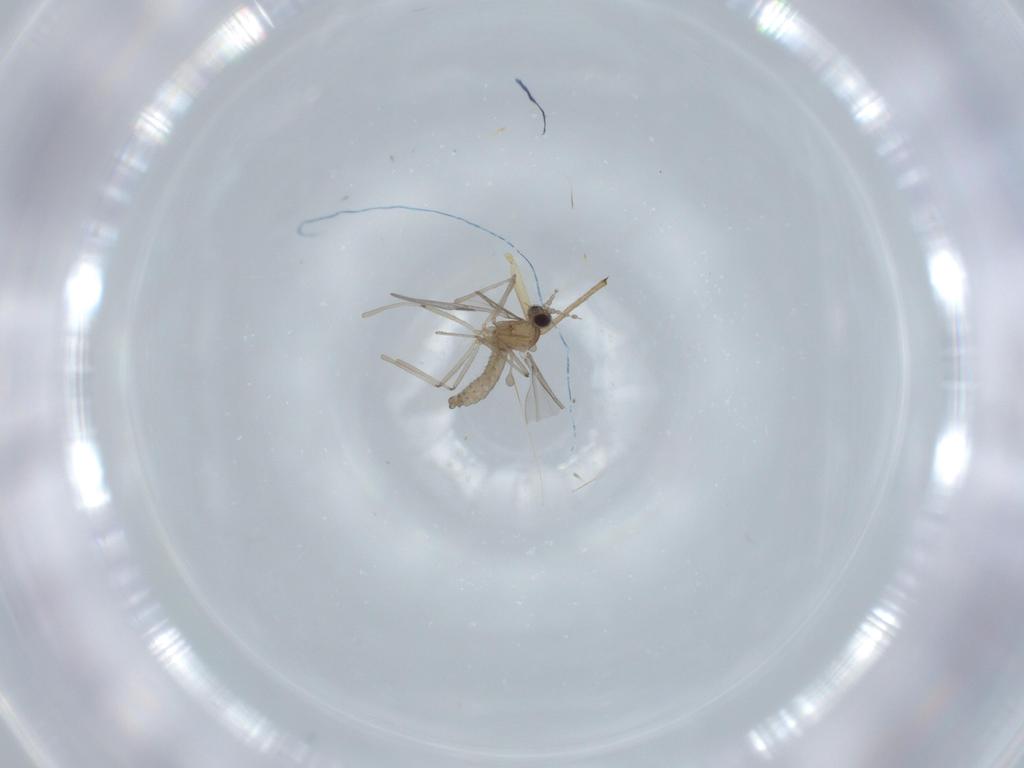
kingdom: Animalia
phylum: Arthropoda
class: Insecta
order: Diptera
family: Chironomidae
